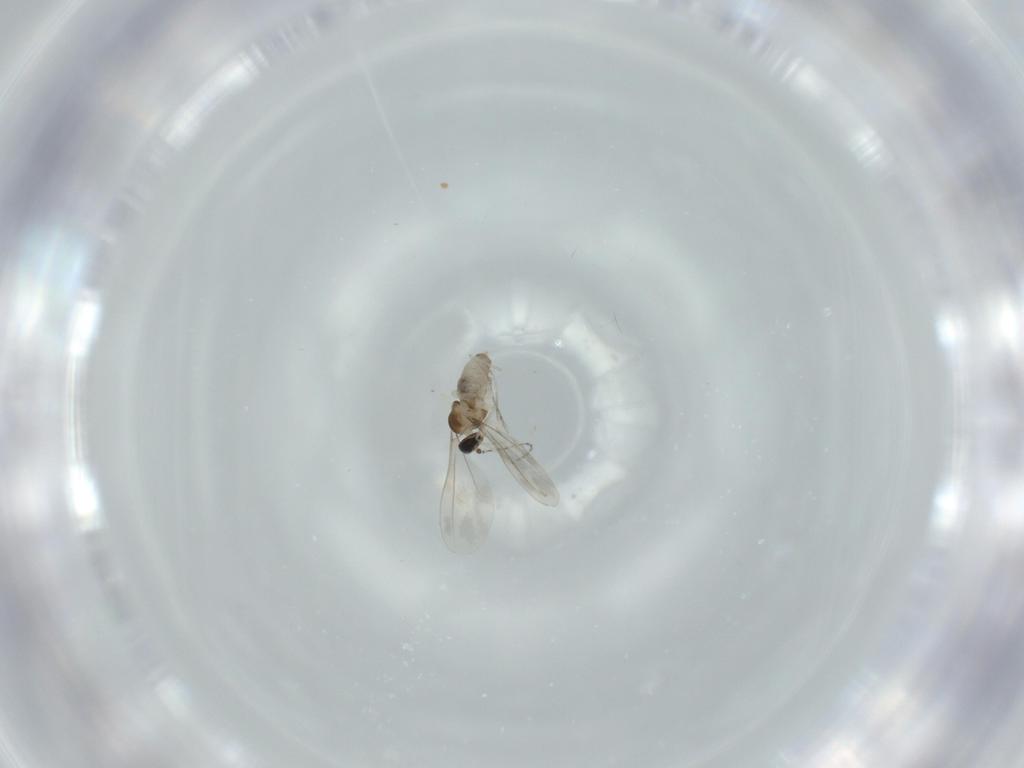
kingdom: Animalia
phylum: Arthropoda
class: Insecta
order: Diptera
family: Cecidomyiidae
